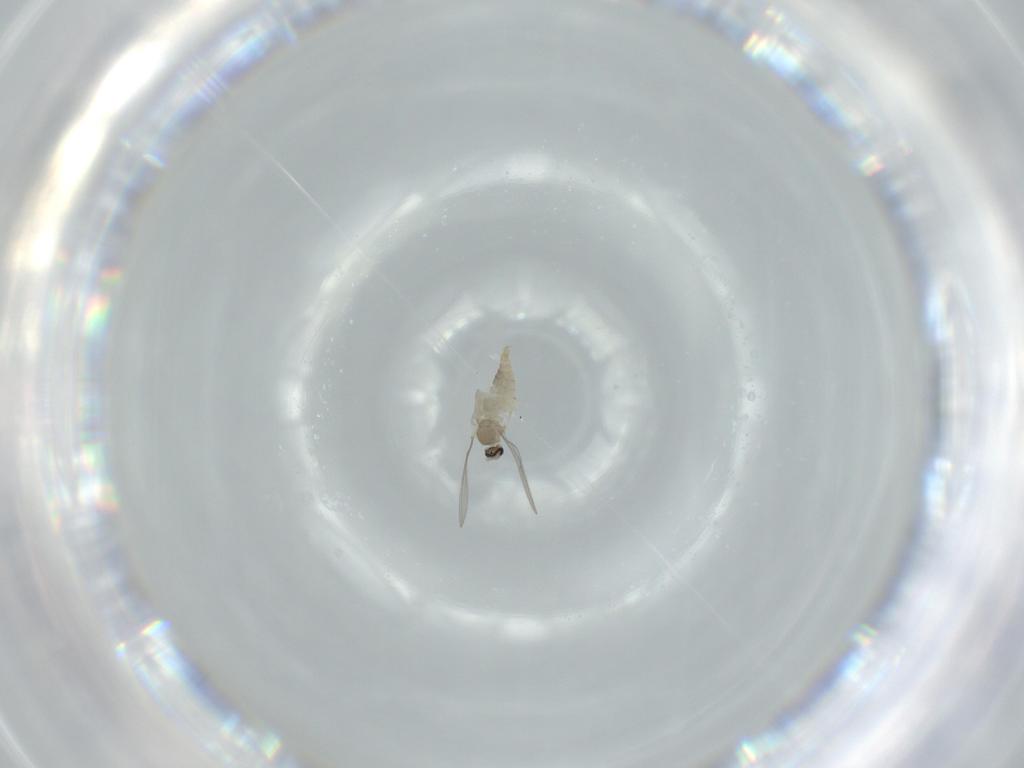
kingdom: Animalia
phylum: Arthropoda
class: Insecta
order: Diptera
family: Cecidomyiidae
